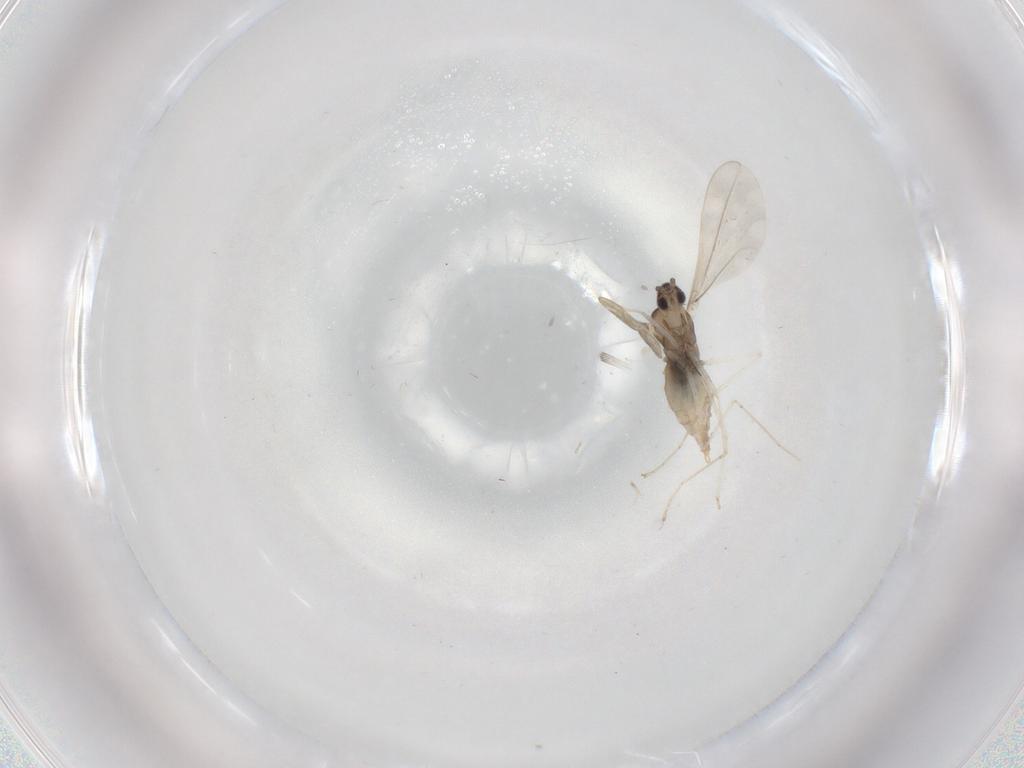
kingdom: Animalia
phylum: Arthropoda
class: Insecta
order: Diptera
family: Cecidomyiidae
